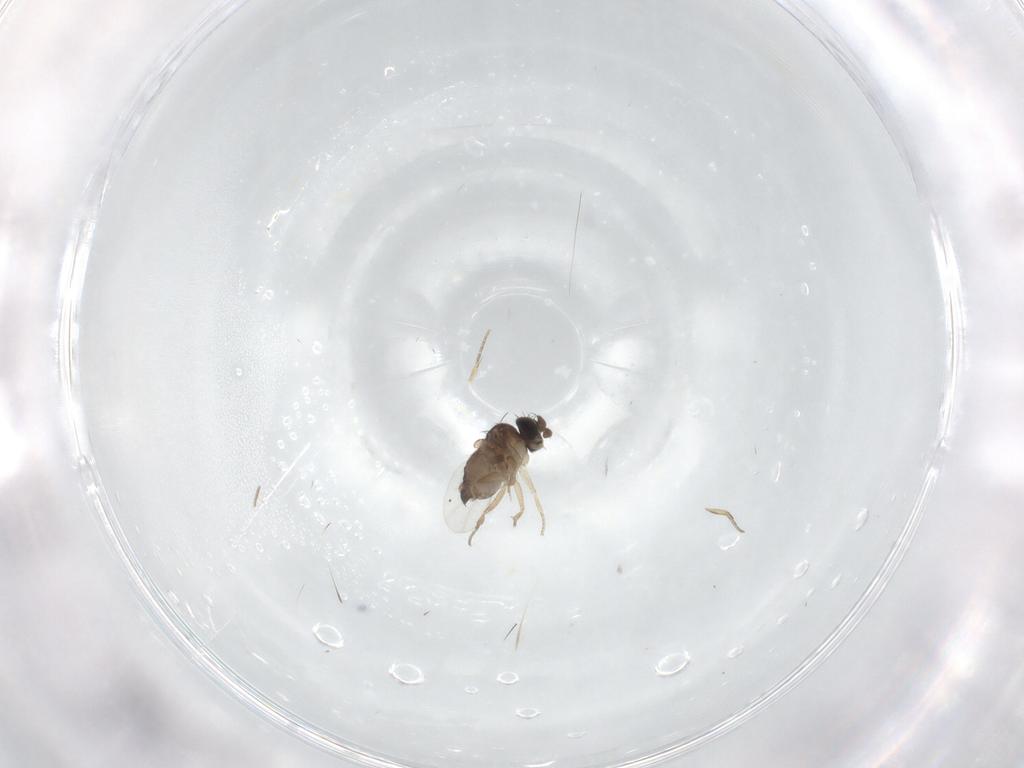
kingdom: Animalia
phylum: Arthropoda
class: Insecta
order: Diptera
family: Phoridae
